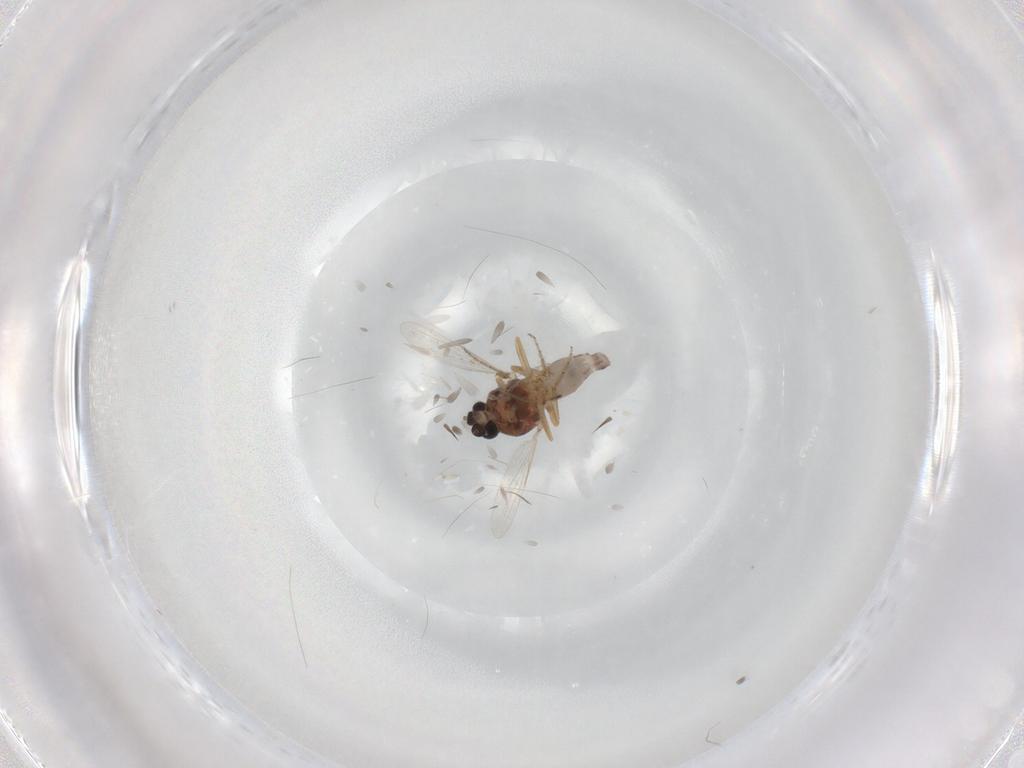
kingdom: Animalia
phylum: Arthropoda
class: Insecta
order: Diptera
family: Ceratopogonidae
